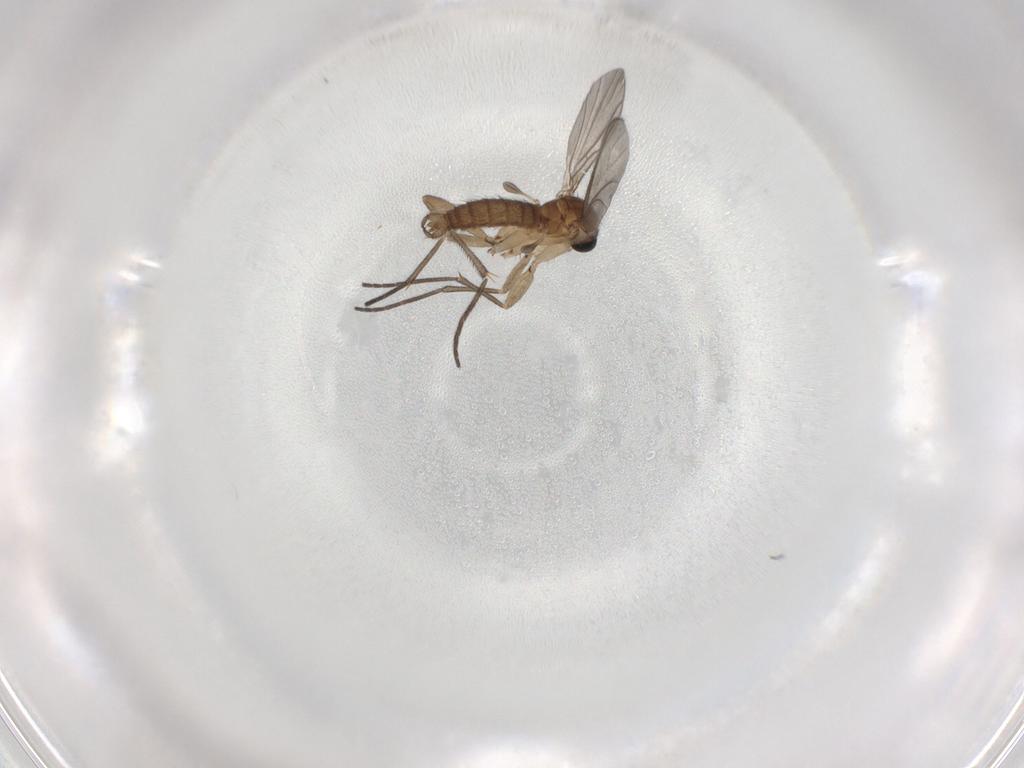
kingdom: Animalia
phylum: Arthropoda
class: Insecta
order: Diptera
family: Sciaridae
